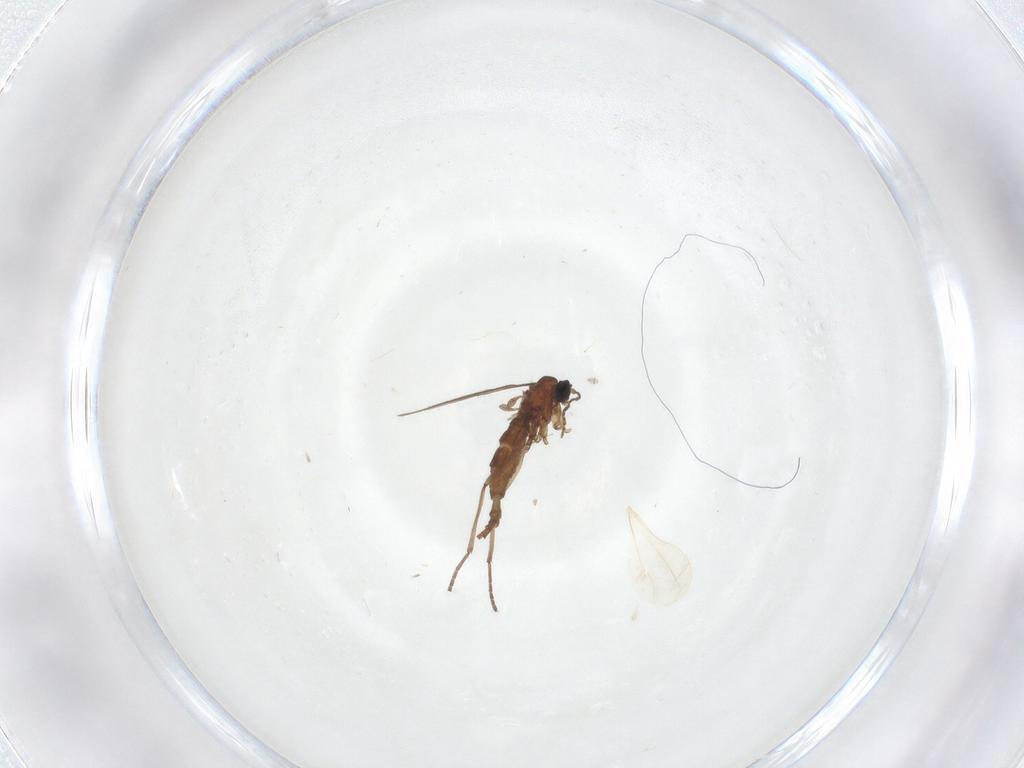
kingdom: Animalia
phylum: Arthropoda
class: Insecta
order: Diptera
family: Sciaridae
